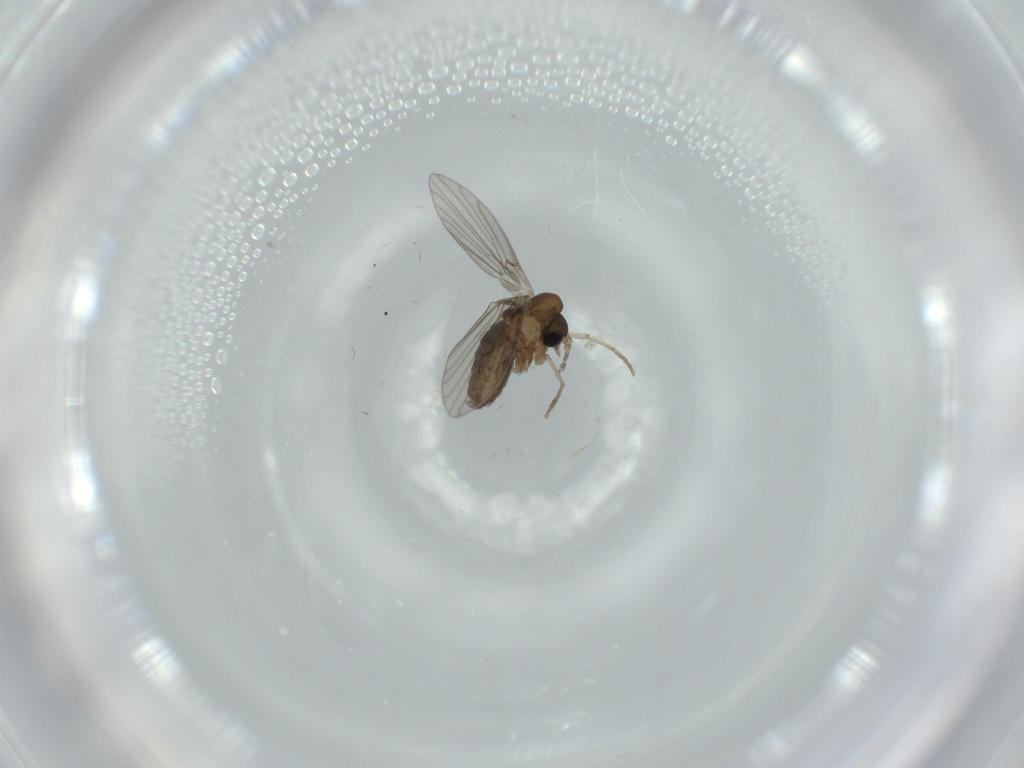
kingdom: Animalia
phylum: Arthropoda
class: Insecta
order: Diptera
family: Psychodidae
